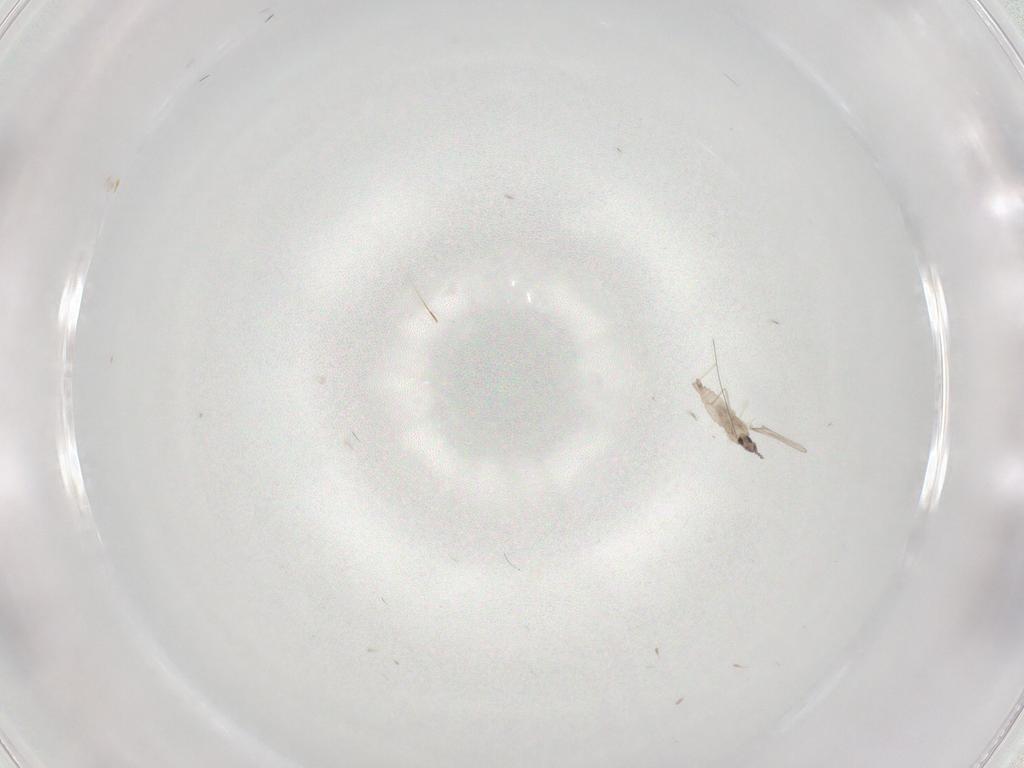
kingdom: Animalia
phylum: Arthropoda
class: Insecta
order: Diptera
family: Cecidomyiidae
